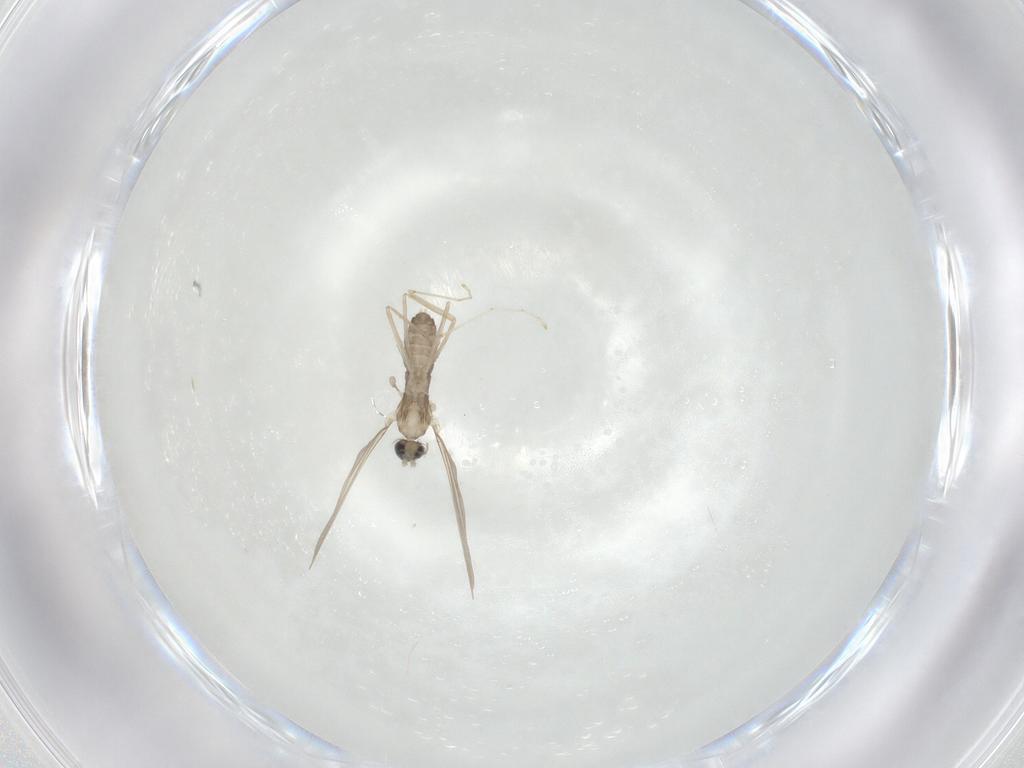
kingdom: Animalia
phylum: Arthropoda
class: Insecta
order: Diptera
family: Cecidomyiidae
